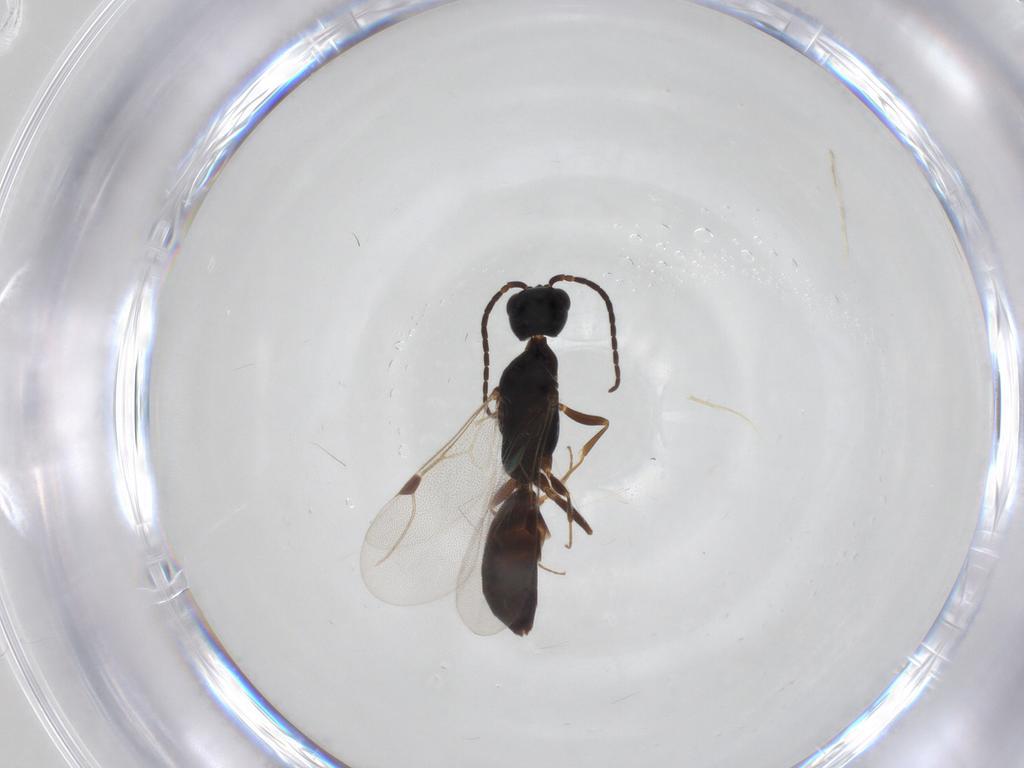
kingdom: Animalia
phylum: Arthropoda
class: Insecta
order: Hymenoptera
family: Bethylidae
